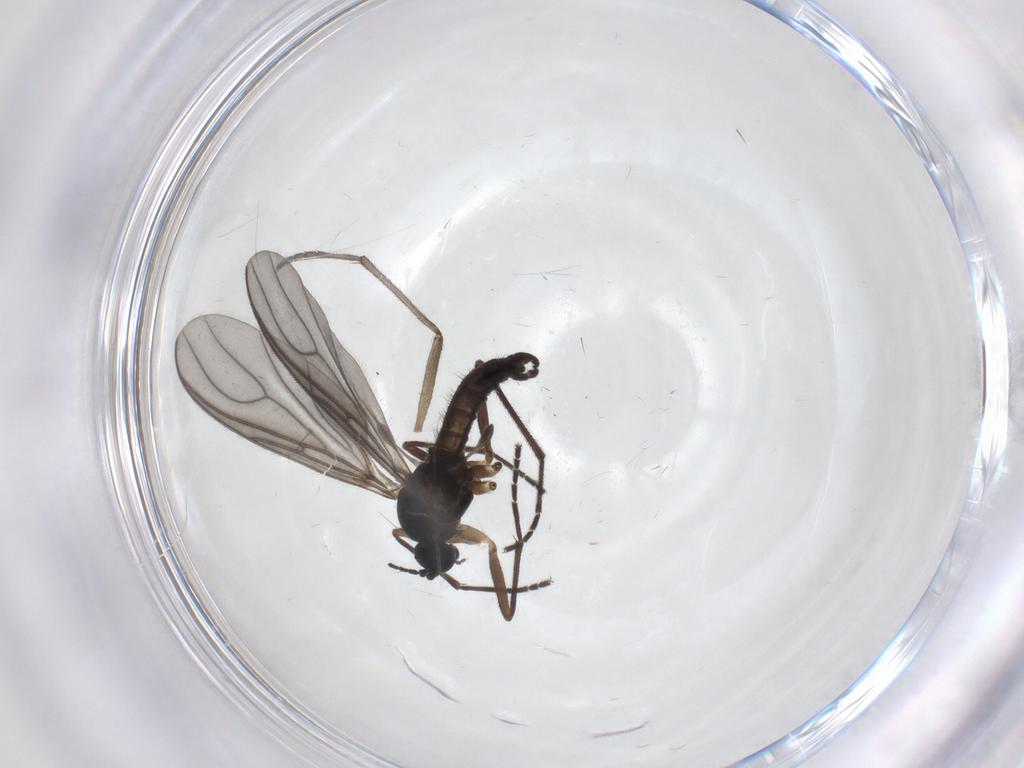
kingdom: Animalia
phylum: Arthropoda
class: Insecta
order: Diptera
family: Sciaridae
